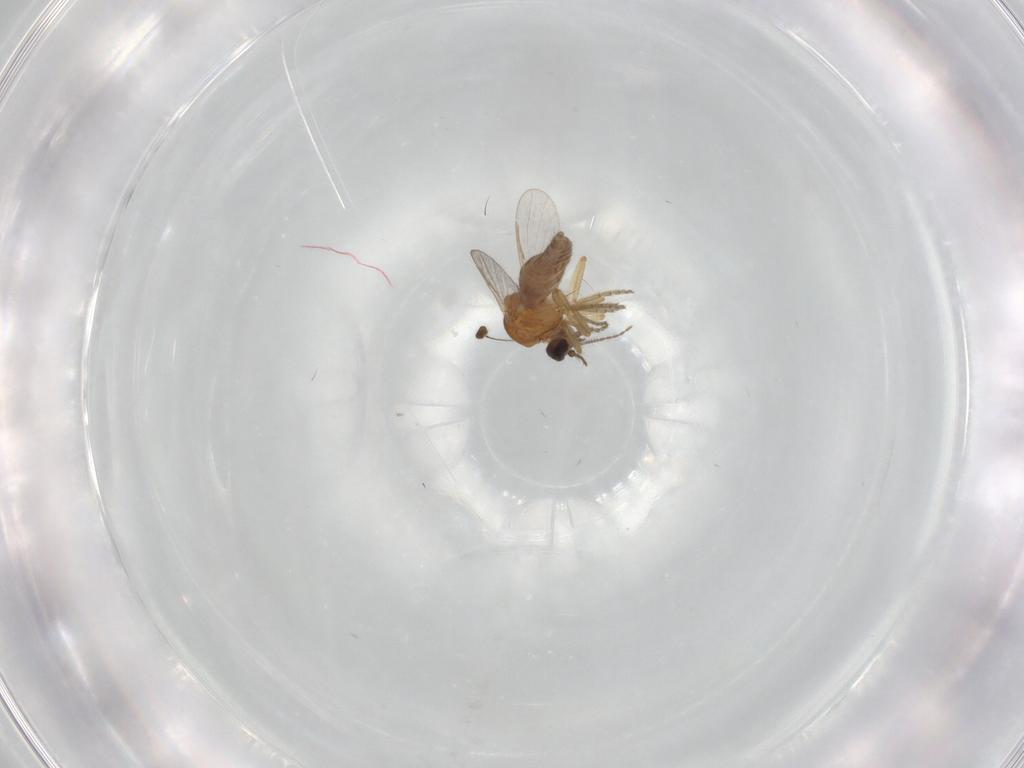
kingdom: Animalia
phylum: Arthropoda
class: Insecta
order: Diptera
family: Ceratopogonidae
